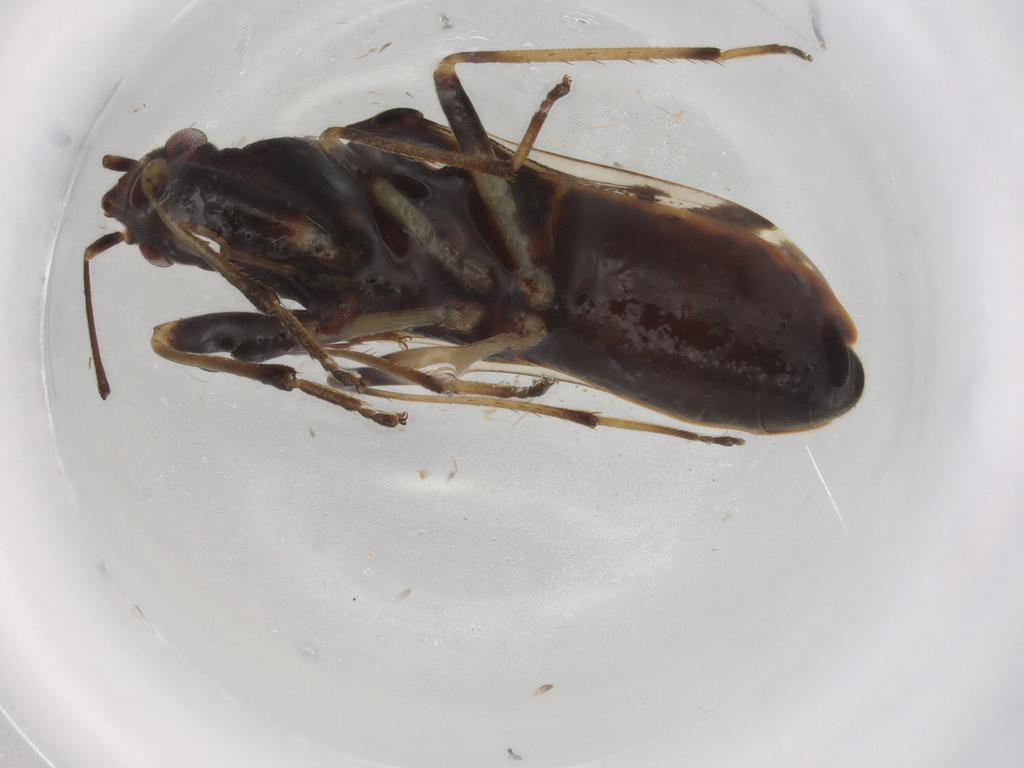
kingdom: Animalia
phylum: Arthropoda
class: Insecta
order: Hemiptera
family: Rhyparochromidae
